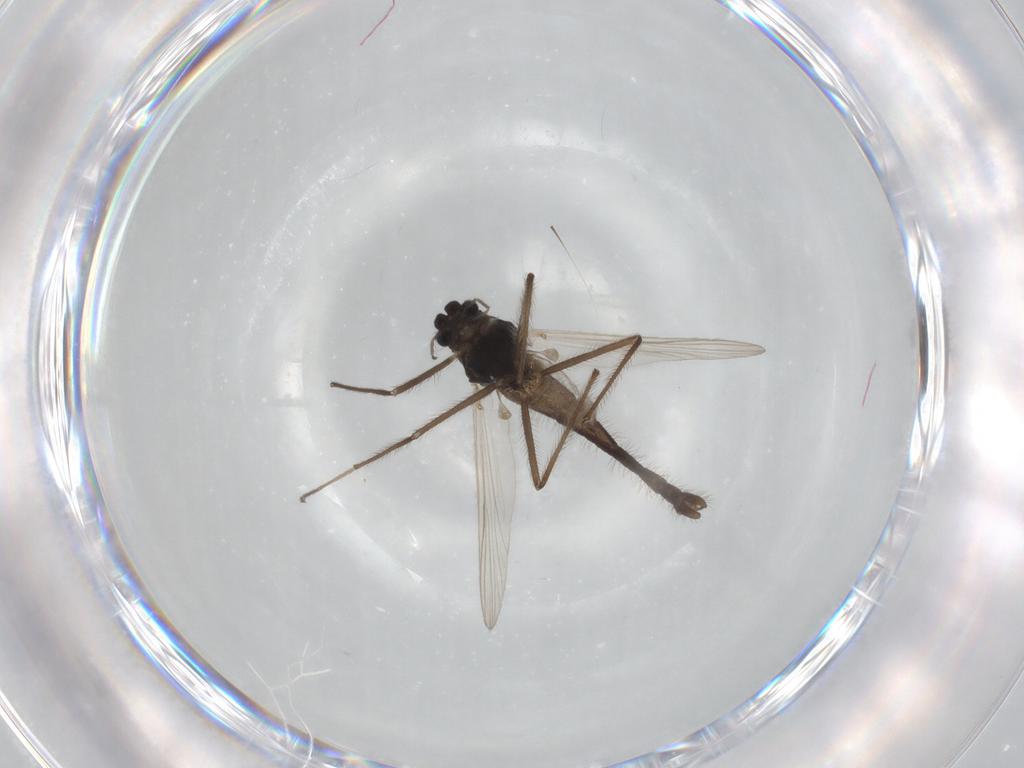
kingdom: Animalia
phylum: Arthropoda
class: Insecta
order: Diptera
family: Chironomidae
